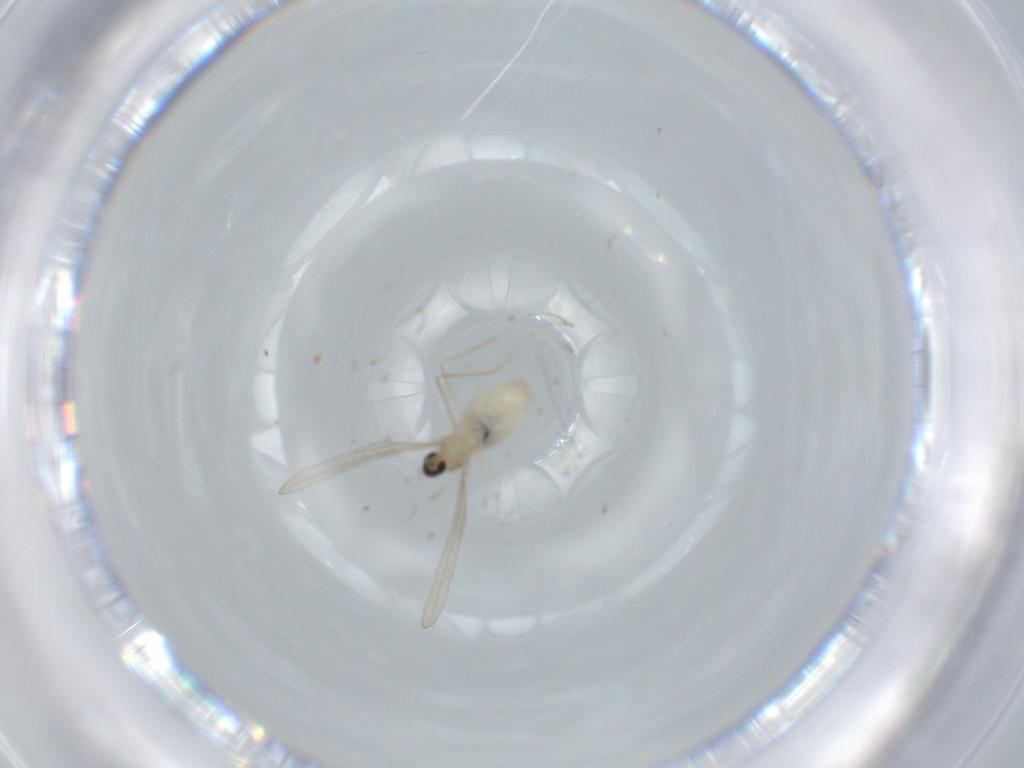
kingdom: Animalia
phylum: Arthropoda
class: Insecta
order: Diptera
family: Cecidomyiidae
